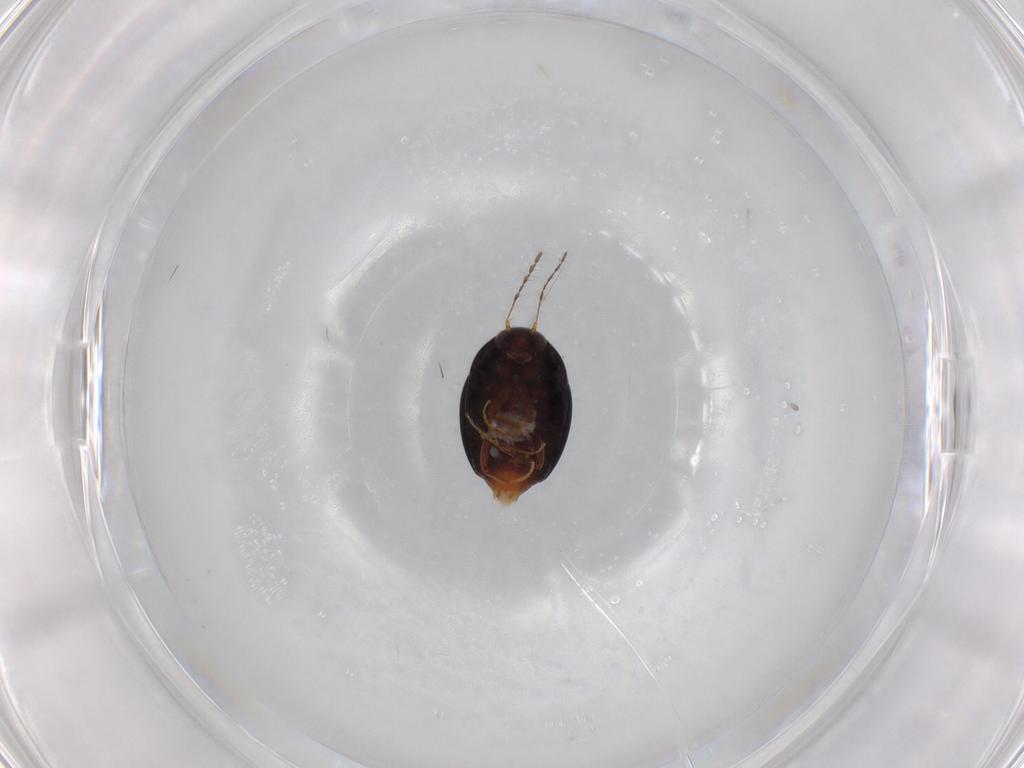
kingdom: Animalia
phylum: Arthropoda
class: Insecta
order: Coleoptera
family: Staphylinidae
